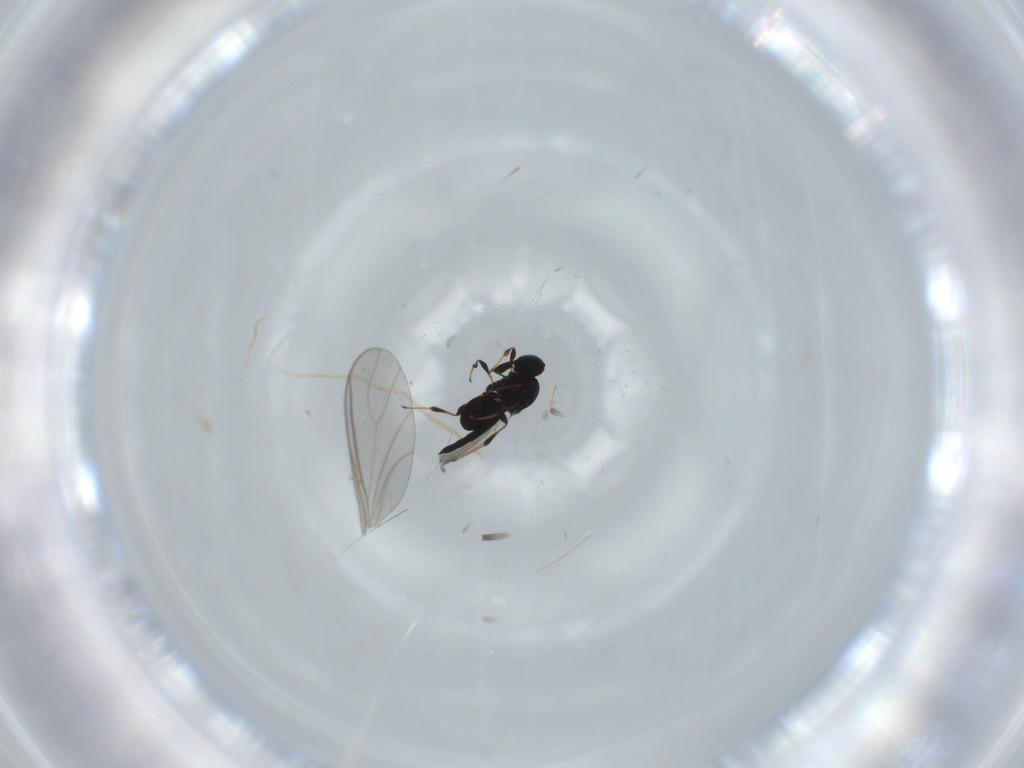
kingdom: Animalia
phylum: Arthropoda
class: Insecta
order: Hymenoptera
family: Platygastridae
